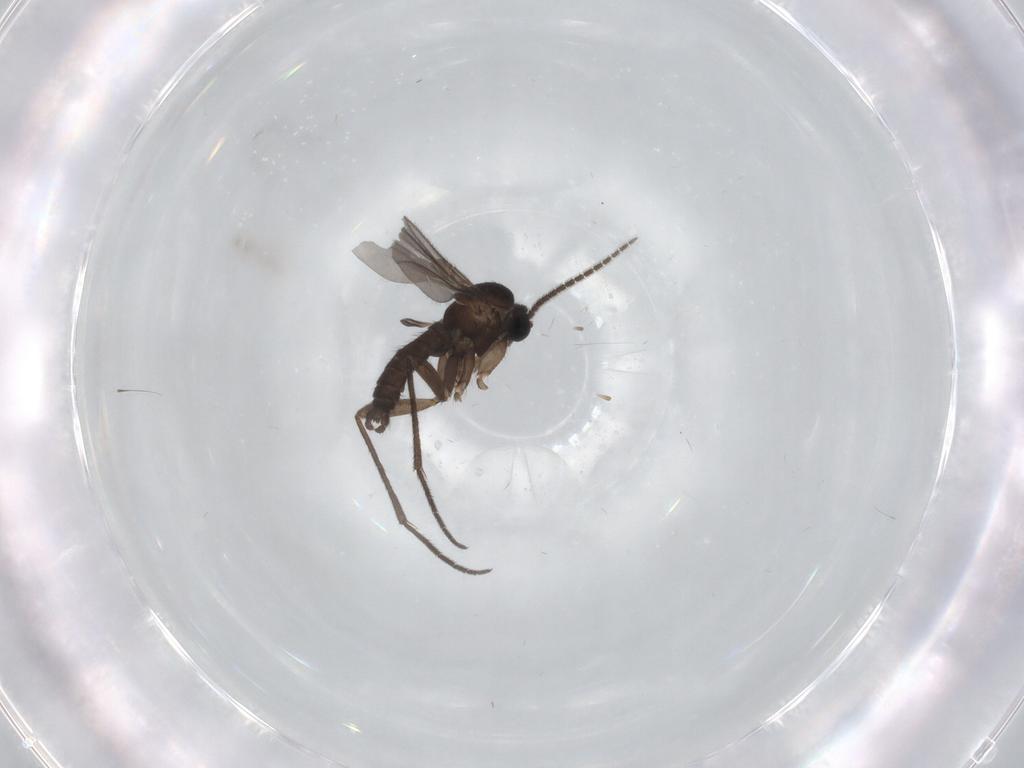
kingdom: Animalia
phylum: Arthropoda
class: Insecta
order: Diptera
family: Sciaridae
